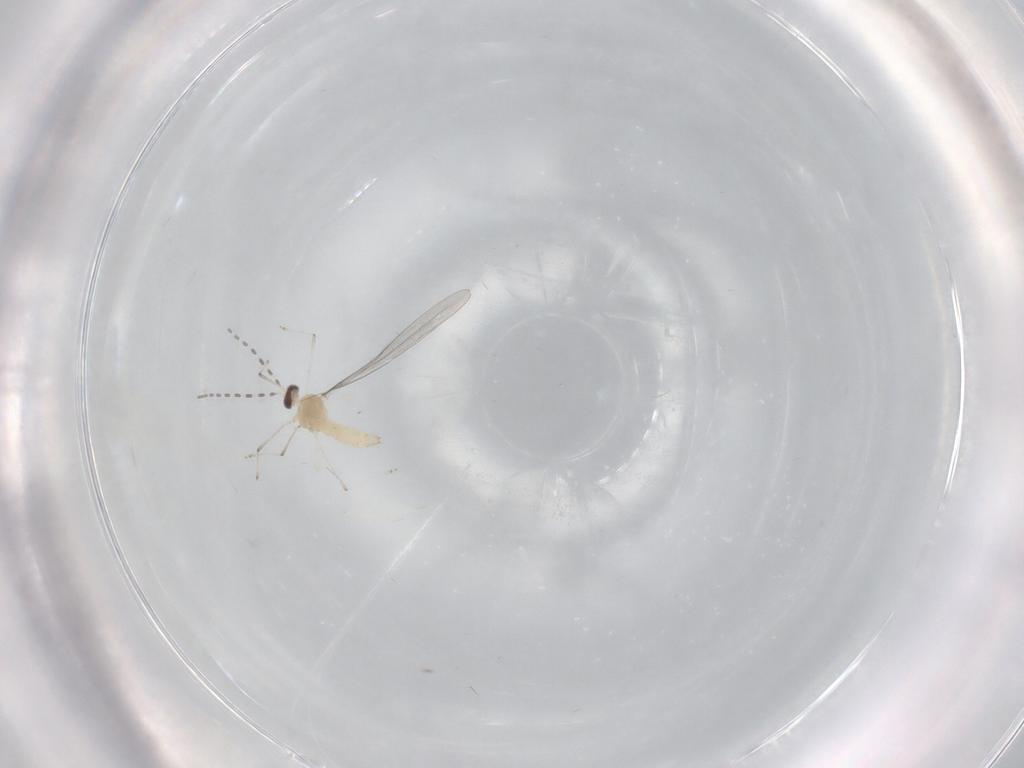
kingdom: Animalia
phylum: Arthropoda
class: Insecta
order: Diptera
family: Cecidomyiidae
